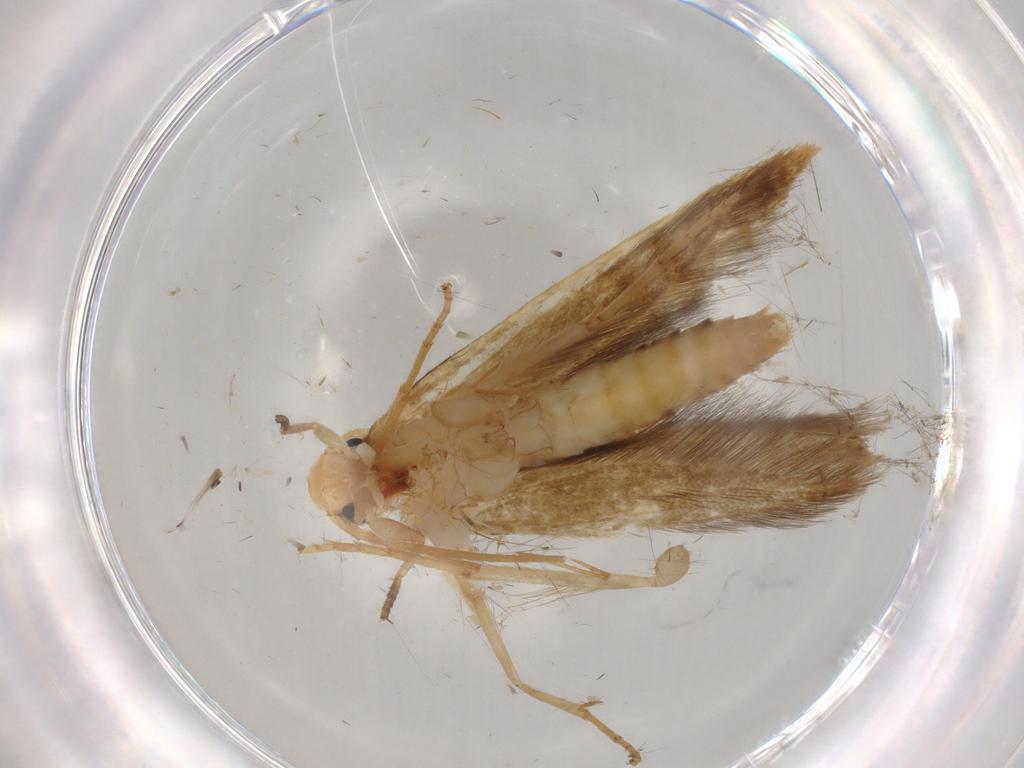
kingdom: Animalia
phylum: Arthropoda
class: Insecta
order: Lepidoptera
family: Tineidae
